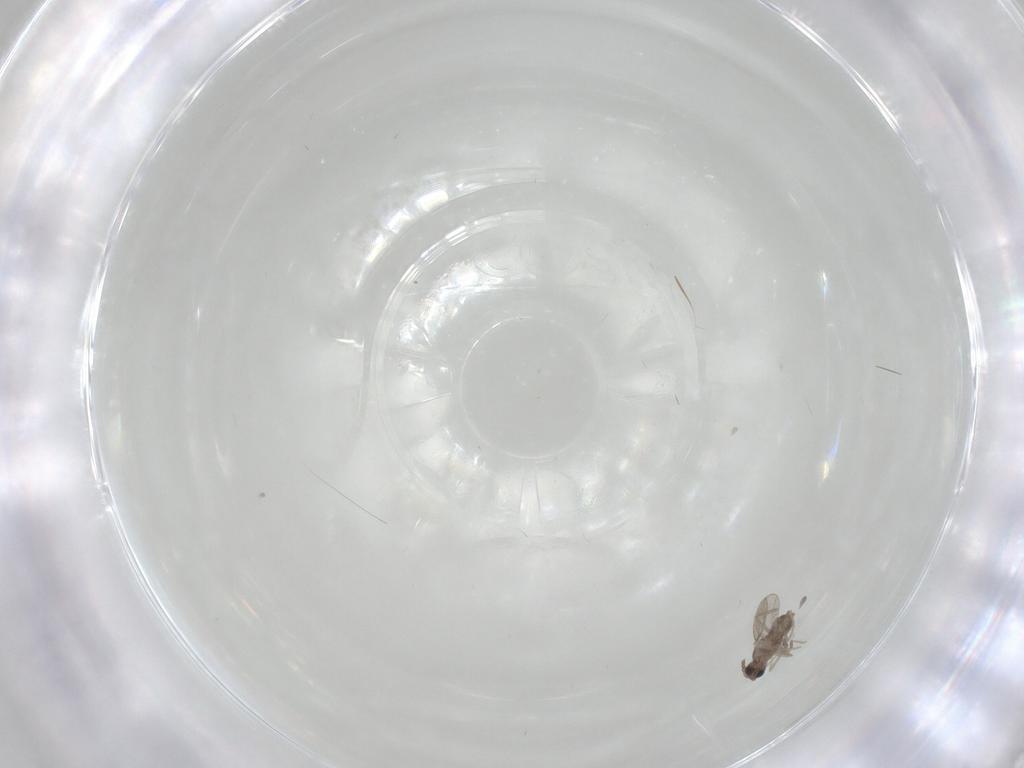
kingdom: Animalia
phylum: Arthropoda
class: Insecta
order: Diptera
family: Cecidomyiidae
